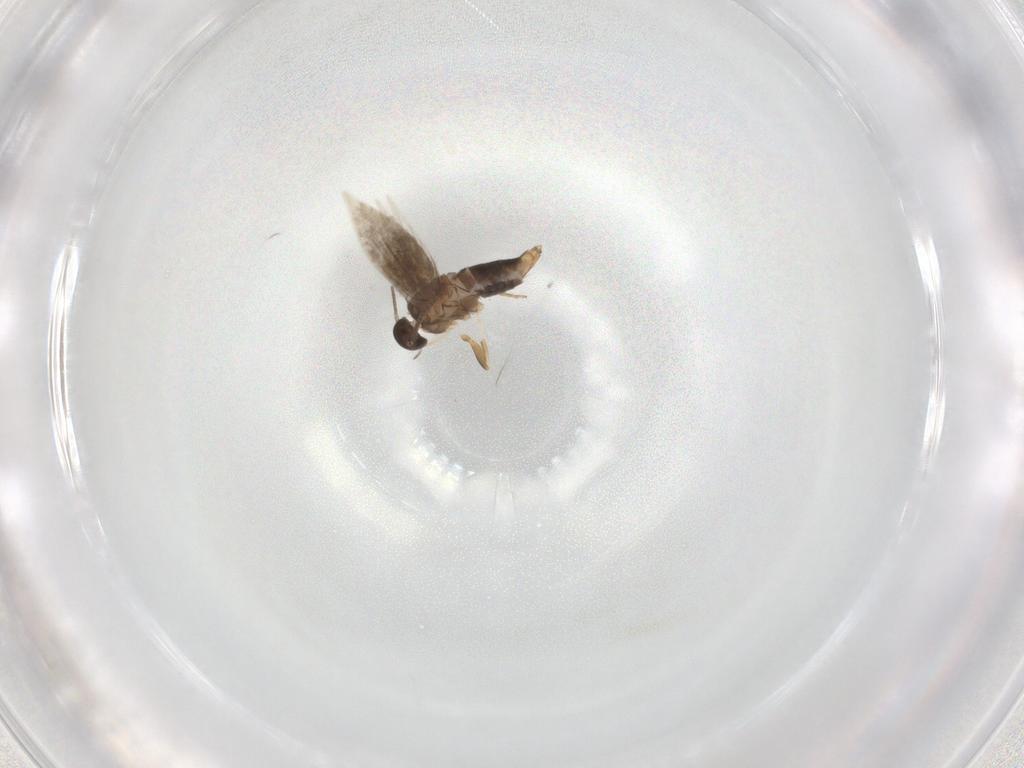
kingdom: Animalia
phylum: Arthropoda
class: Insecta
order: Lepidoptera
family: Heliozelidae
